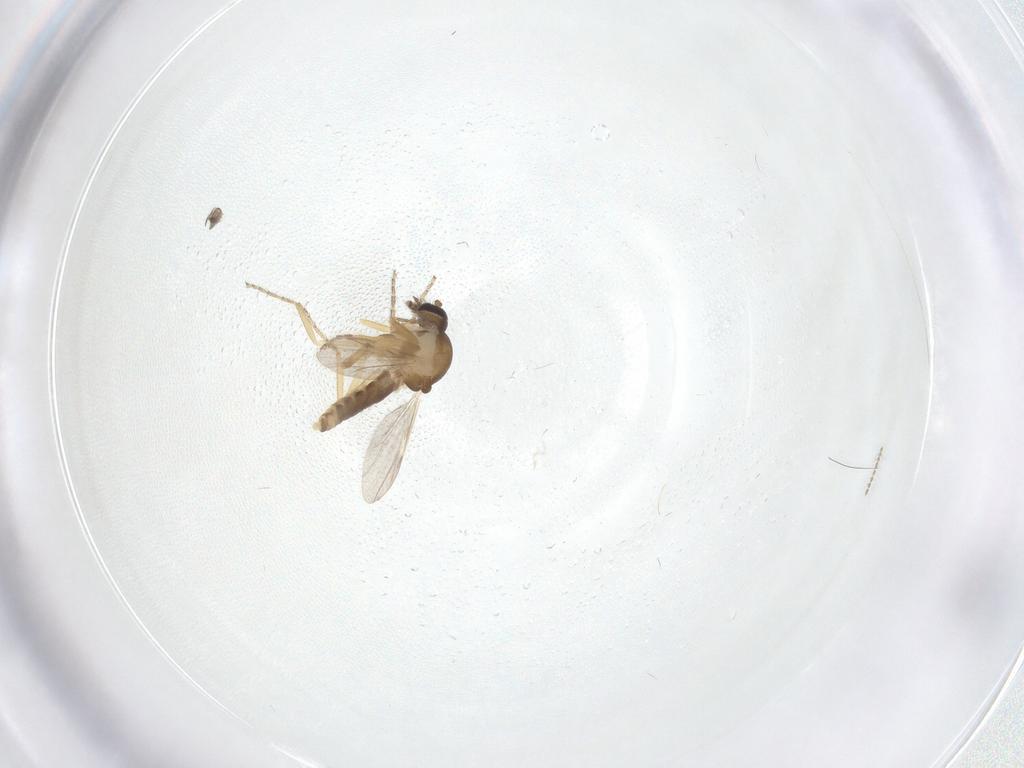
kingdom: Animalia
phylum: Arthropoda
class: Insecta
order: Diptera
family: Ceratopogonidae
